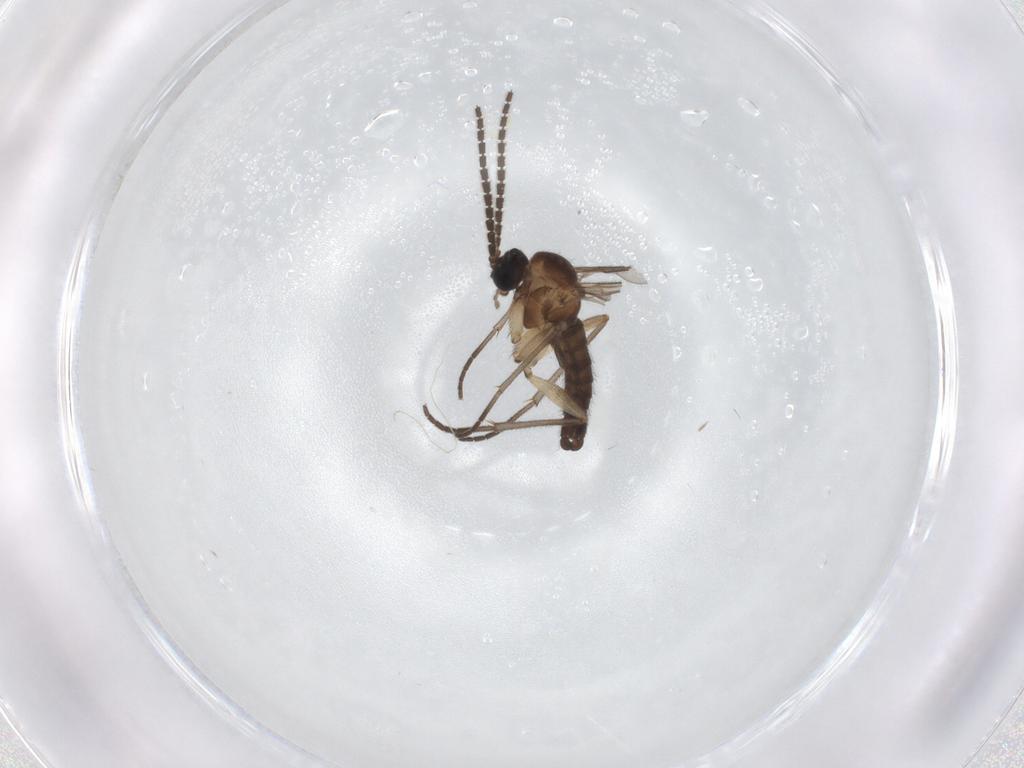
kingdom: Animalia
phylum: Arthropoda
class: Insecta
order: Diptera
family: Sciaridae
